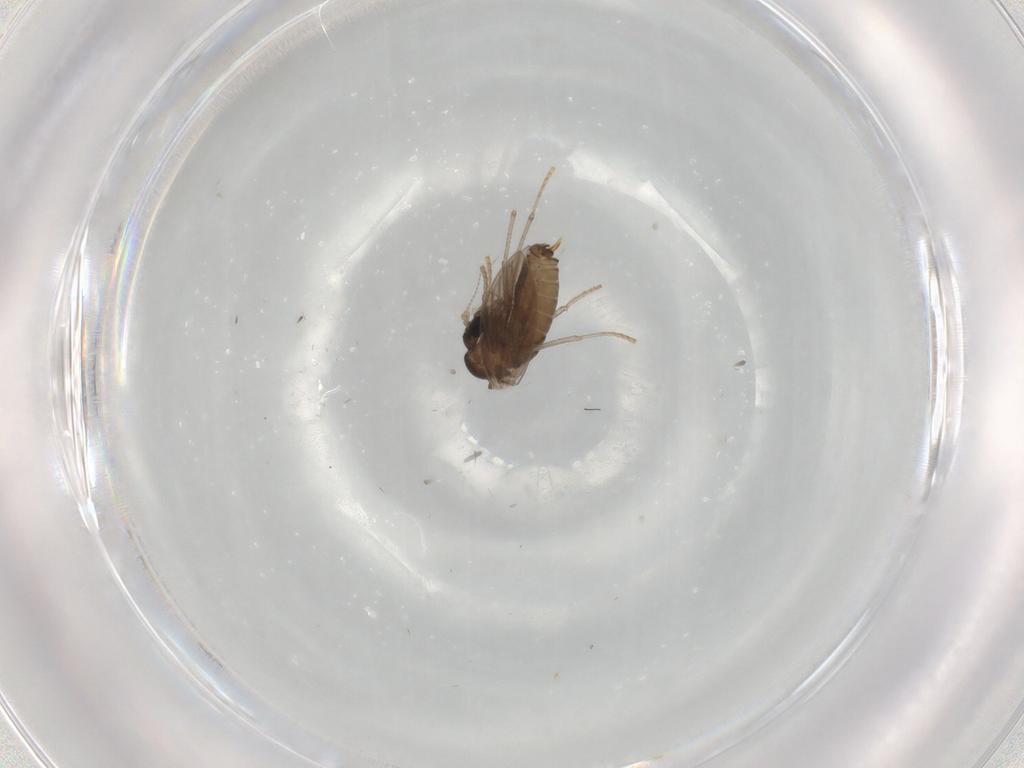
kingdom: Animalia
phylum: Arthropoda
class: Insecta
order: Diptera
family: Psychodidae
